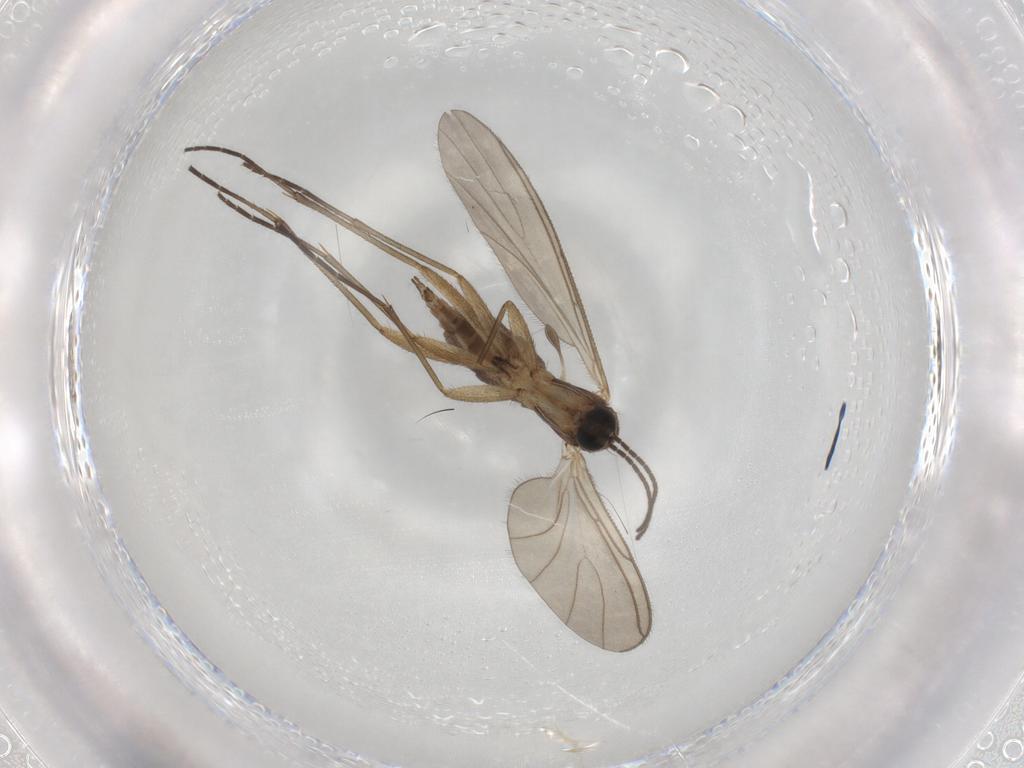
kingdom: Animalia
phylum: Arthropoda
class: Insecta
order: Diptera
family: Sciaridae
